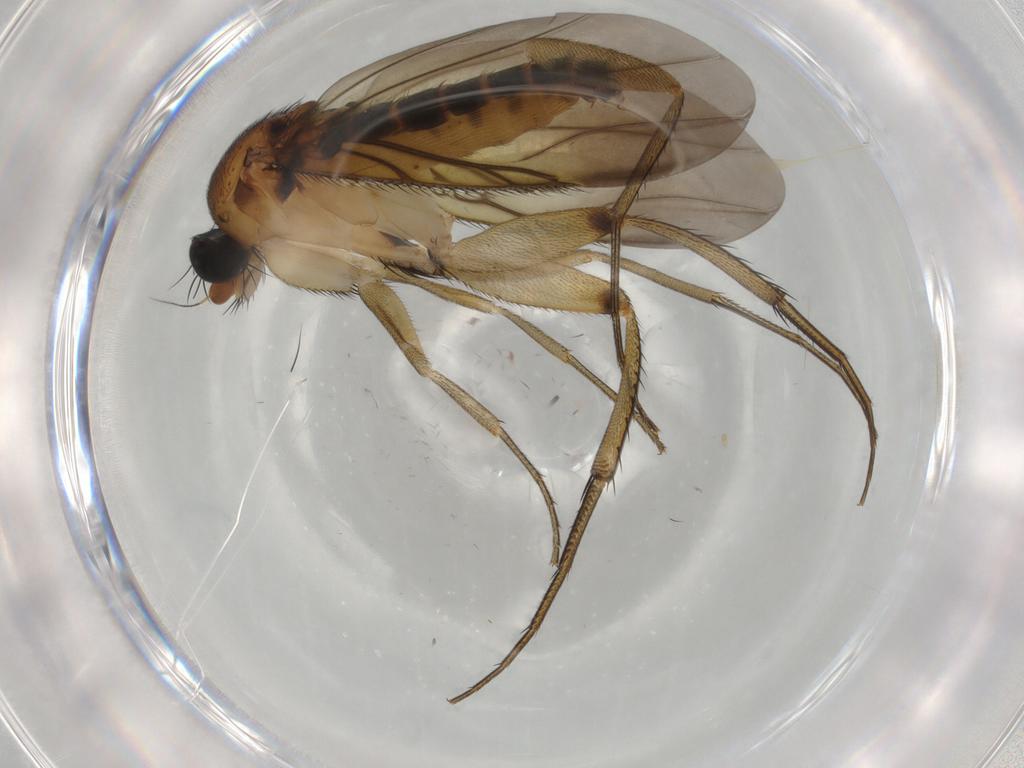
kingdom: Animalia
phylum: Arthropoda
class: Insecta
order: Diptera
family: Phoridae
